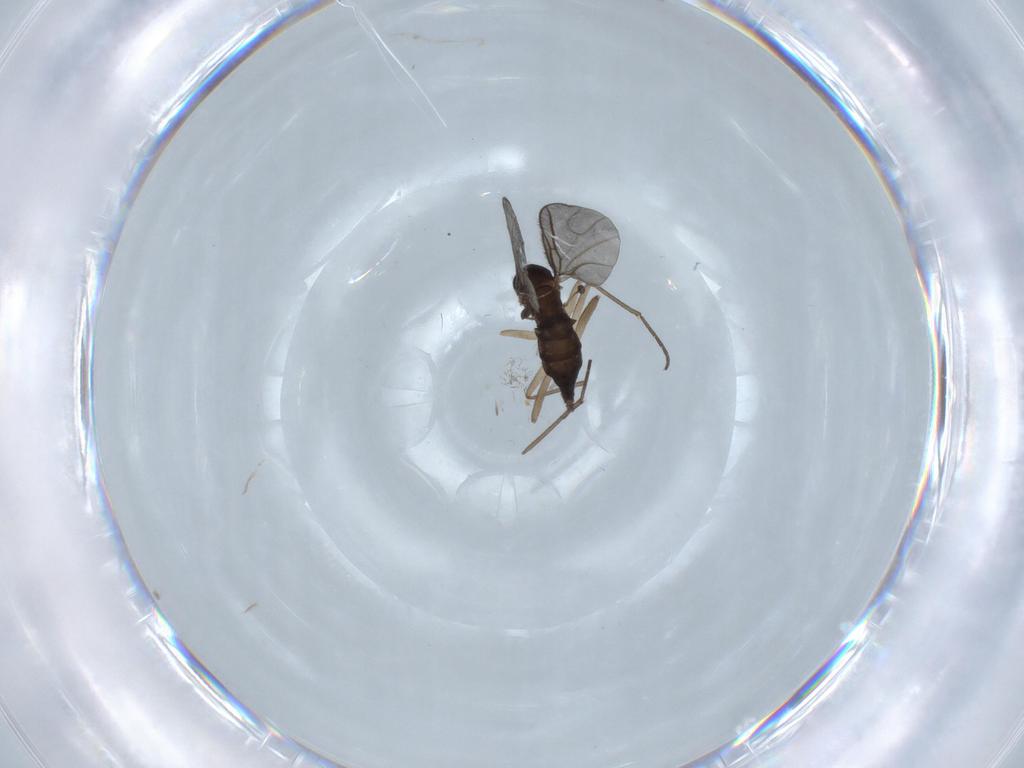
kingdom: Animalia
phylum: Arthropoda
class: Insecta
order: Diptera
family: Sciaridae
